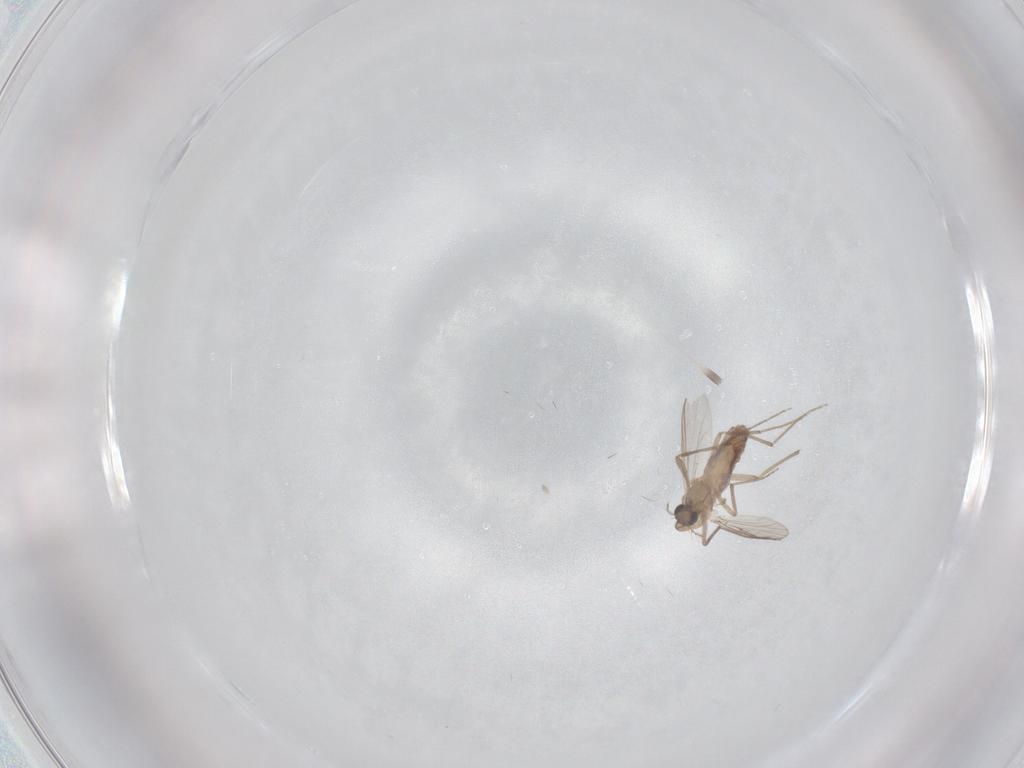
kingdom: Animalia
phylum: Arthropoda
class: Insecta
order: Diptera
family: Chironomidae
